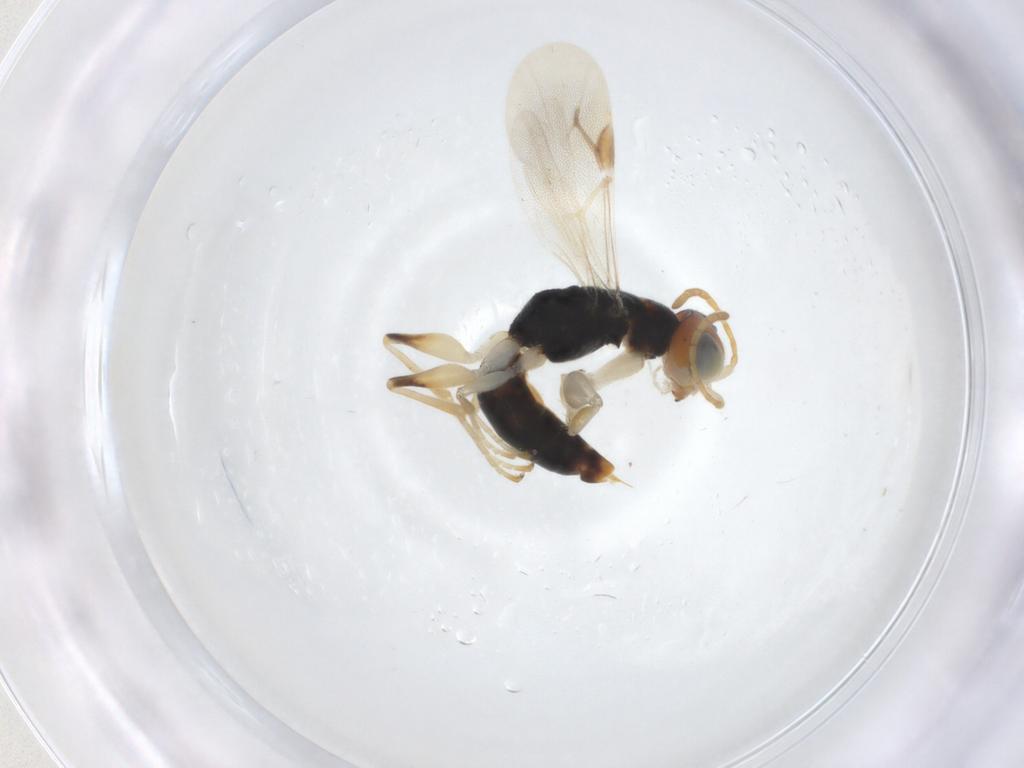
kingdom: Animalia
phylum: Arthropoda
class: Insecta
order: Hymenoptera
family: Dryinidae
